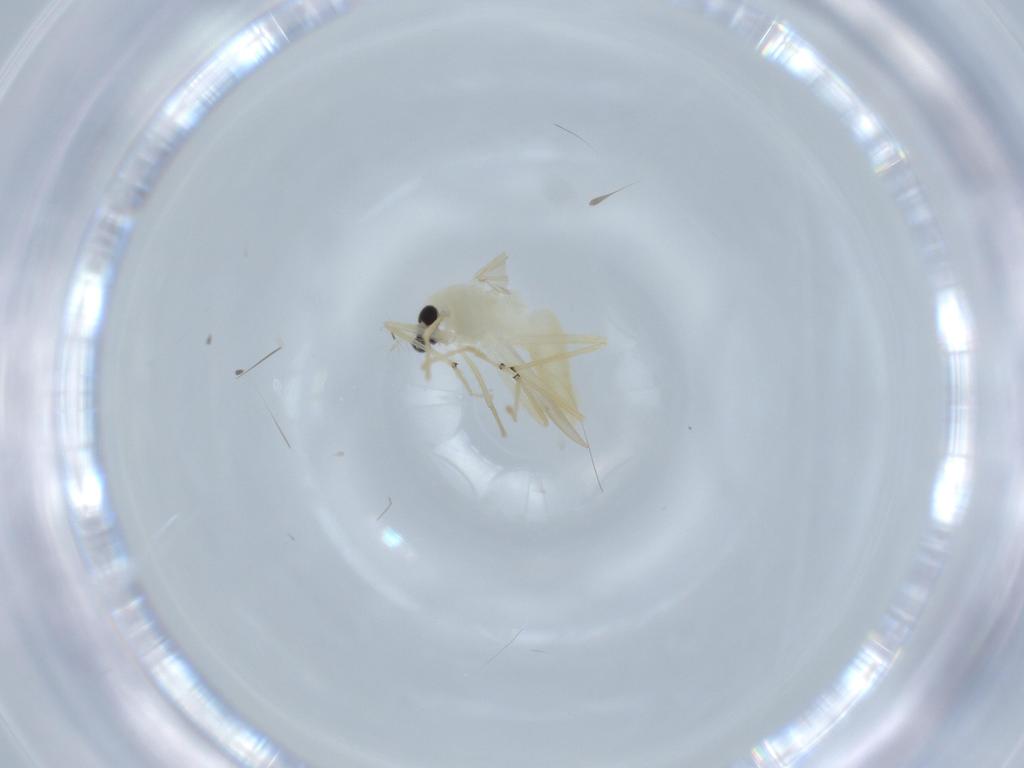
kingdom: Animalia
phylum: Arthropoda
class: Insecta
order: Diptera
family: Chironomidae
